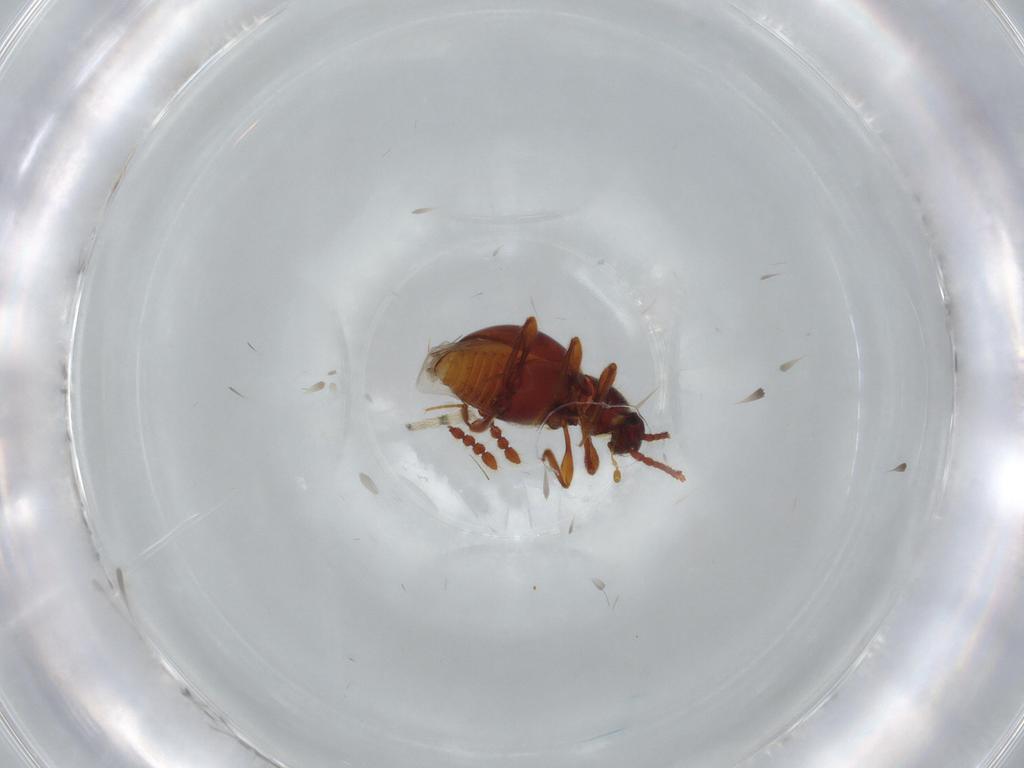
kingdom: Animalia
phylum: Arthropoda
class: Insecta
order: Coleoptera
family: Staphylinidae
